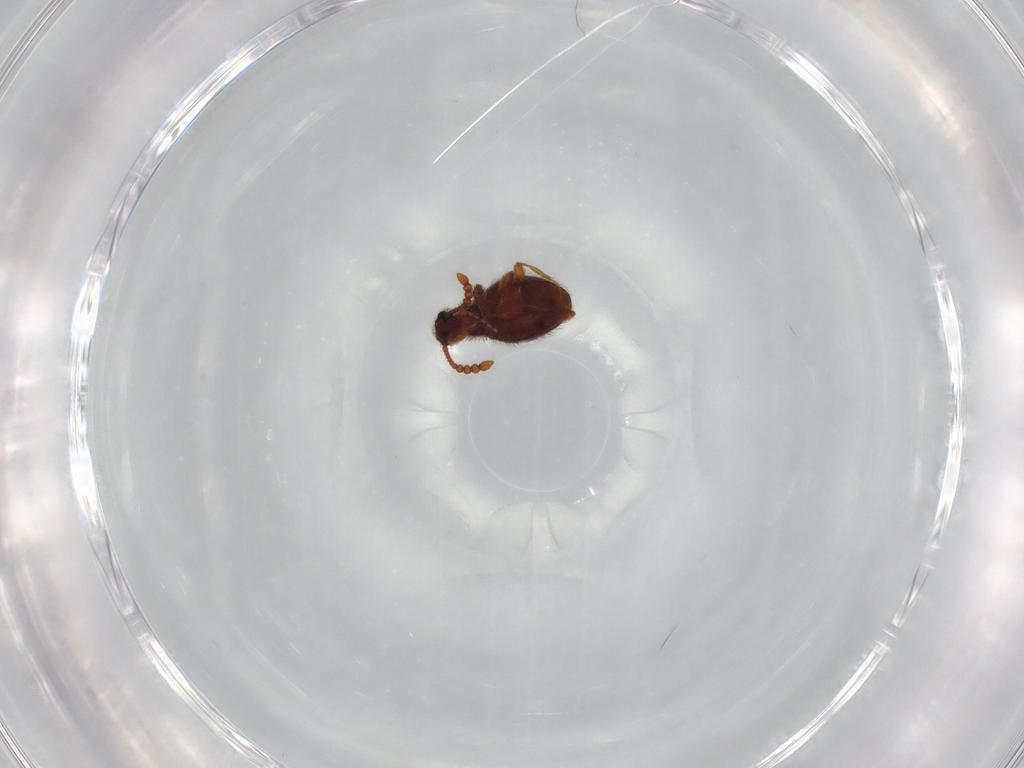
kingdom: Animalia
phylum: Arthropoda
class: Insecta
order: Coleoptera
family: Staphylinidae
